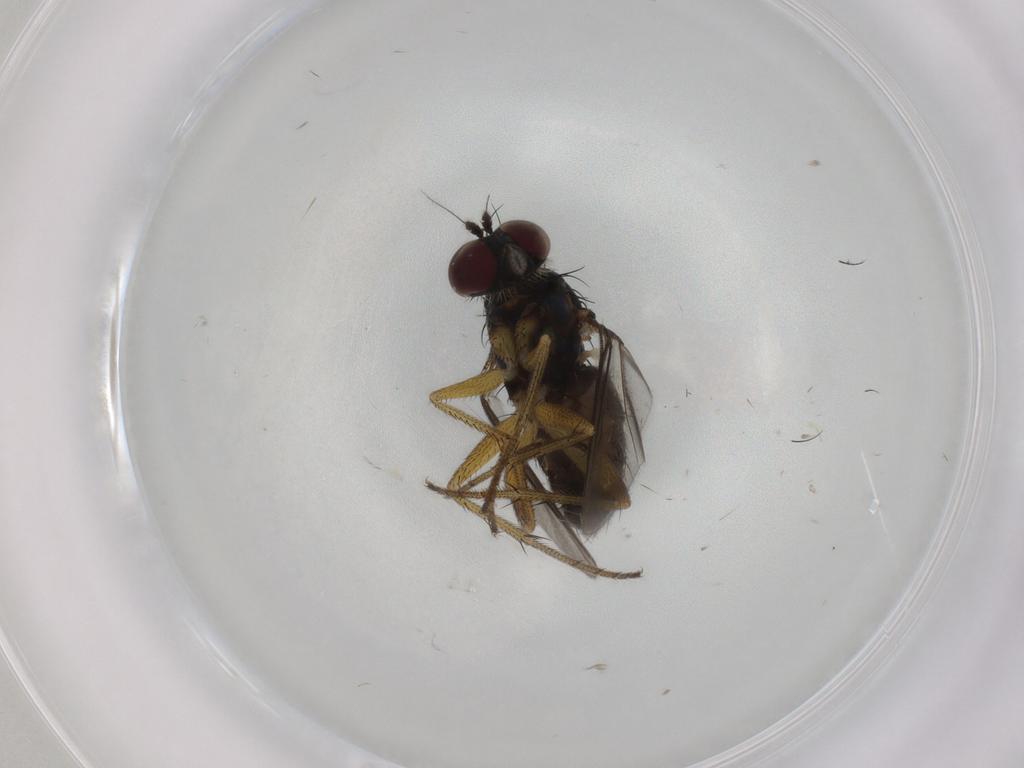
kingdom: Animalia
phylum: Arthropoda
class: Insecta
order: Diptera
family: Dolichopodidae
